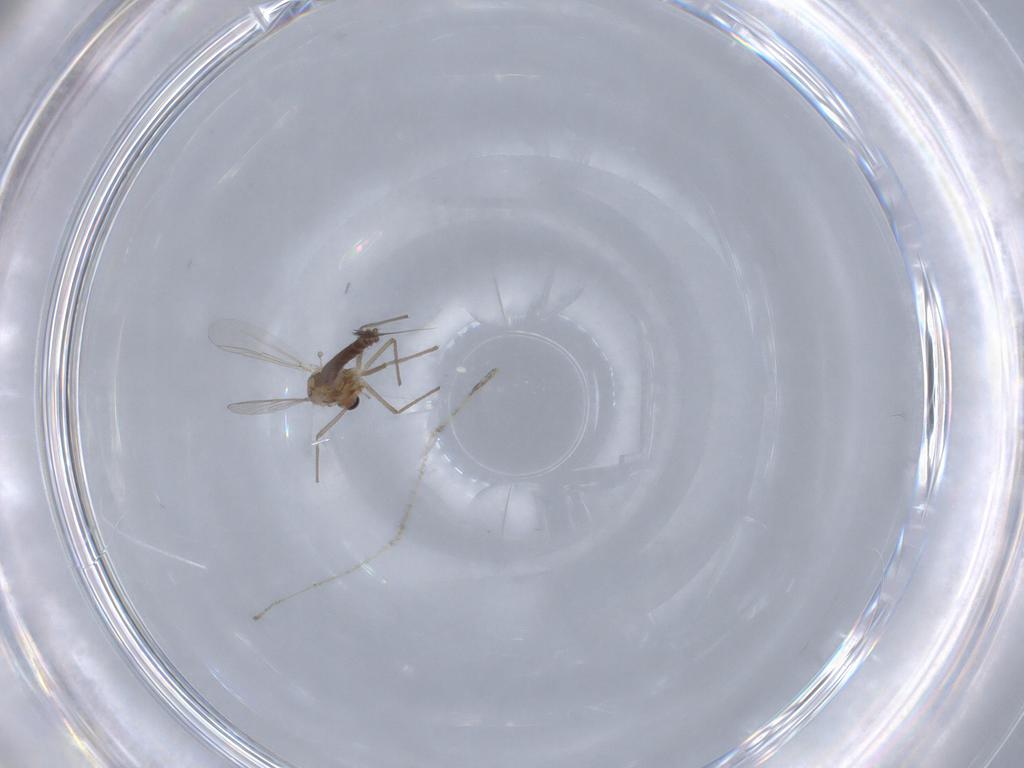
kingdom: Animalia
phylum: Arthropoda
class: Insecta
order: Diptera
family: Chironomidae
